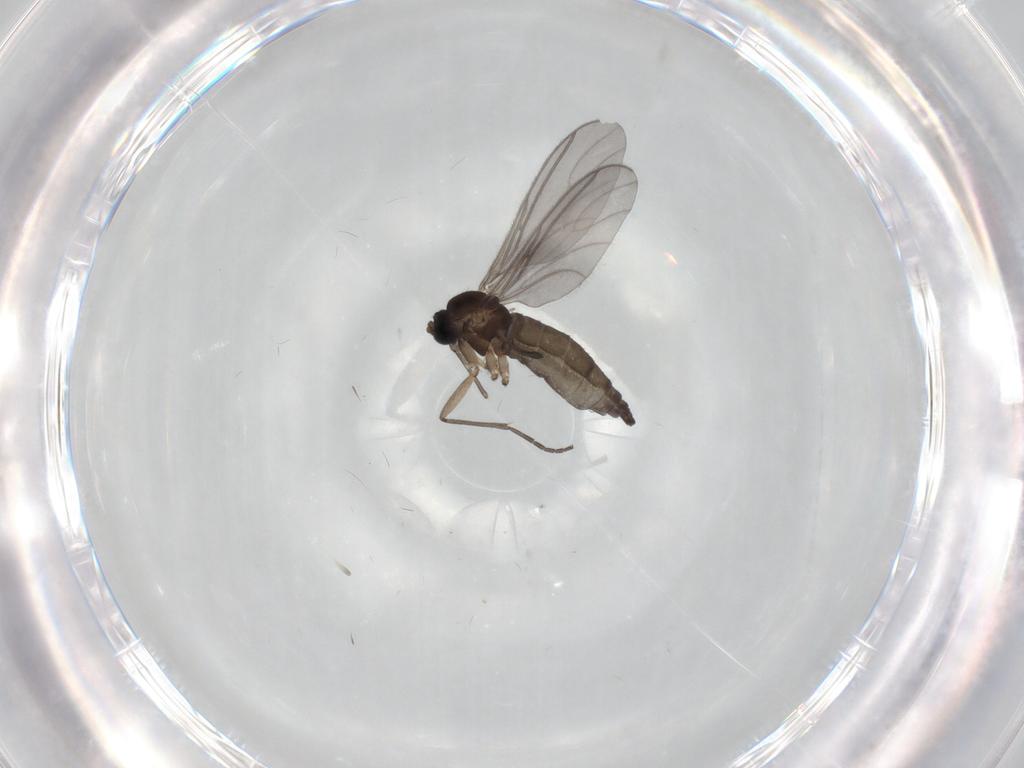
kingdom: Animalia
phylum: Arthropoda
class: Insecta
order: Diptera
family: Sciaridae
